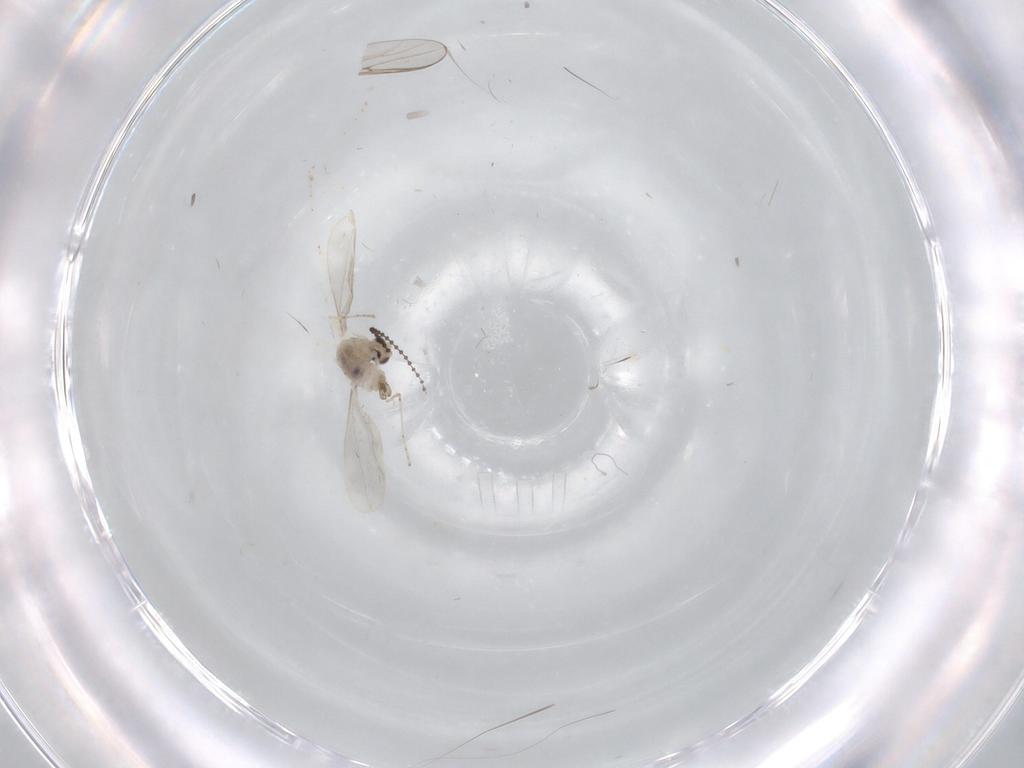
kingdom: Animalia
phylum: Arthropoda
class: Insecta
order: Diptera
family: Cecidomyiidae
